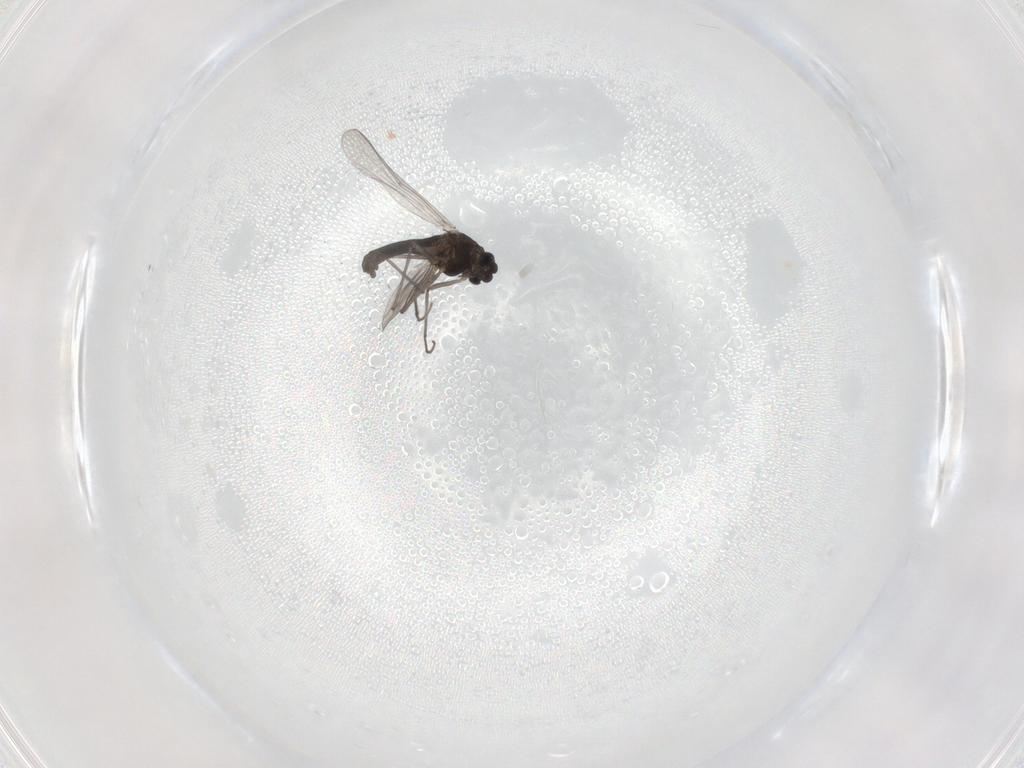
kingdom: Animalia
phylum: Arthropoda
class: Insecta
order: Diptera
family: Chironomidae
